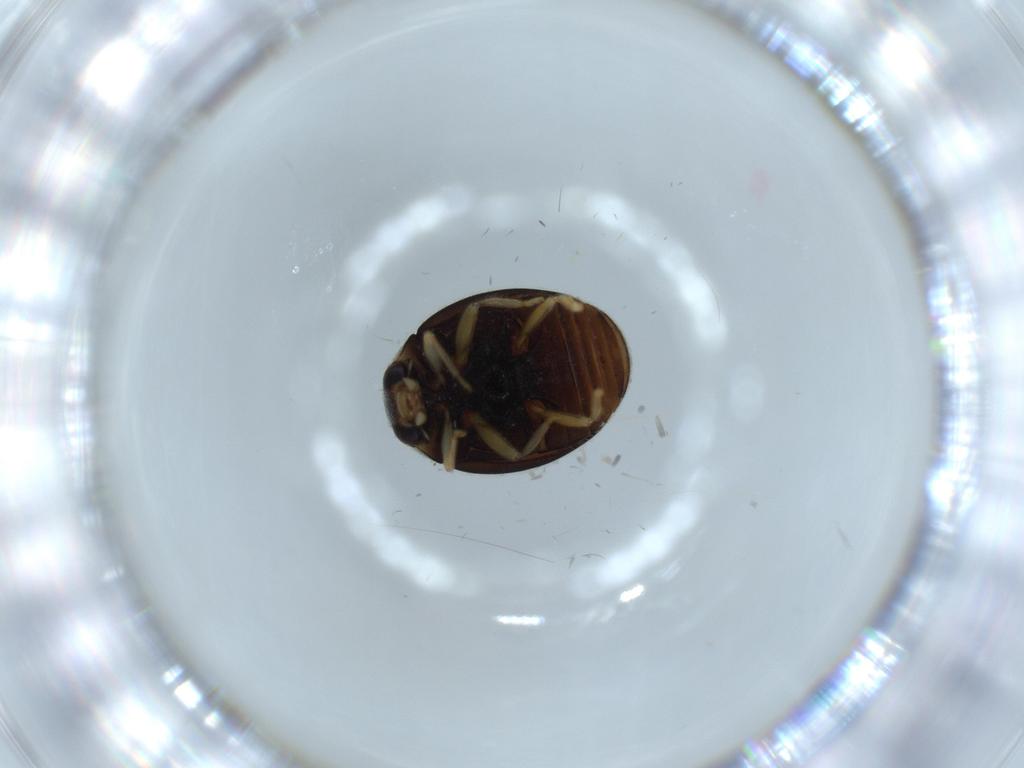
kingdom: Animalia
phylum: Arthropoda
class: Insecta
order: Coleoptera
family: Coccinellidae
